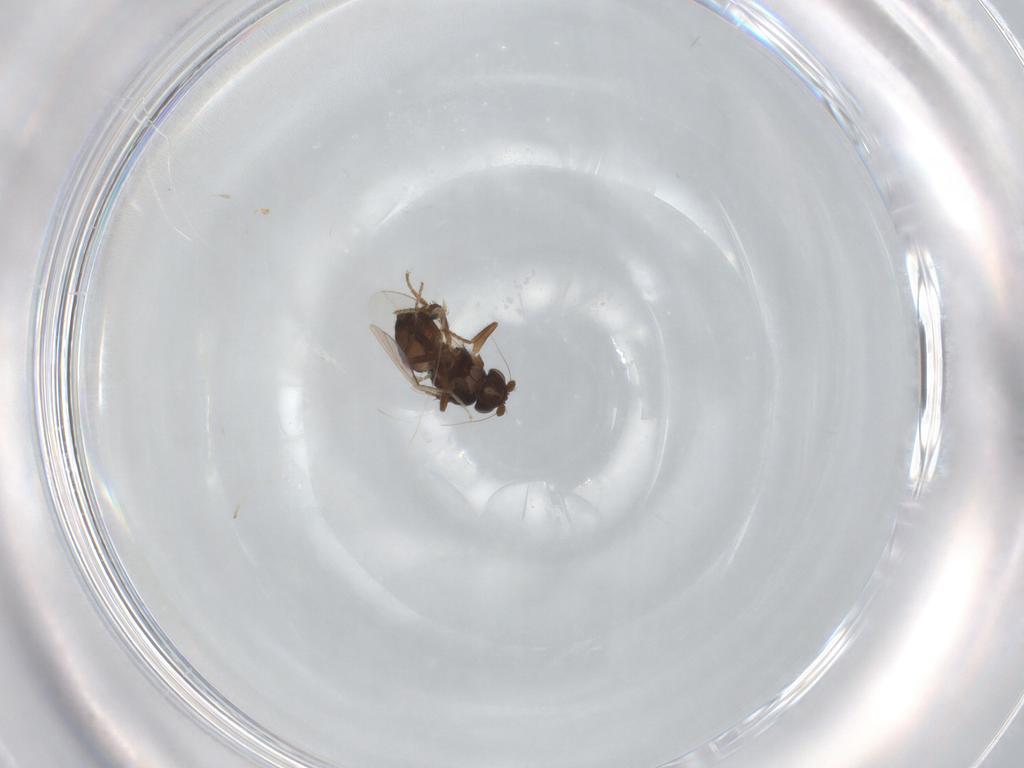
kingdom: Animalia
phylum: Arthropoda
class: Insecta
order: Diptera
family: Sphaeroceridae
